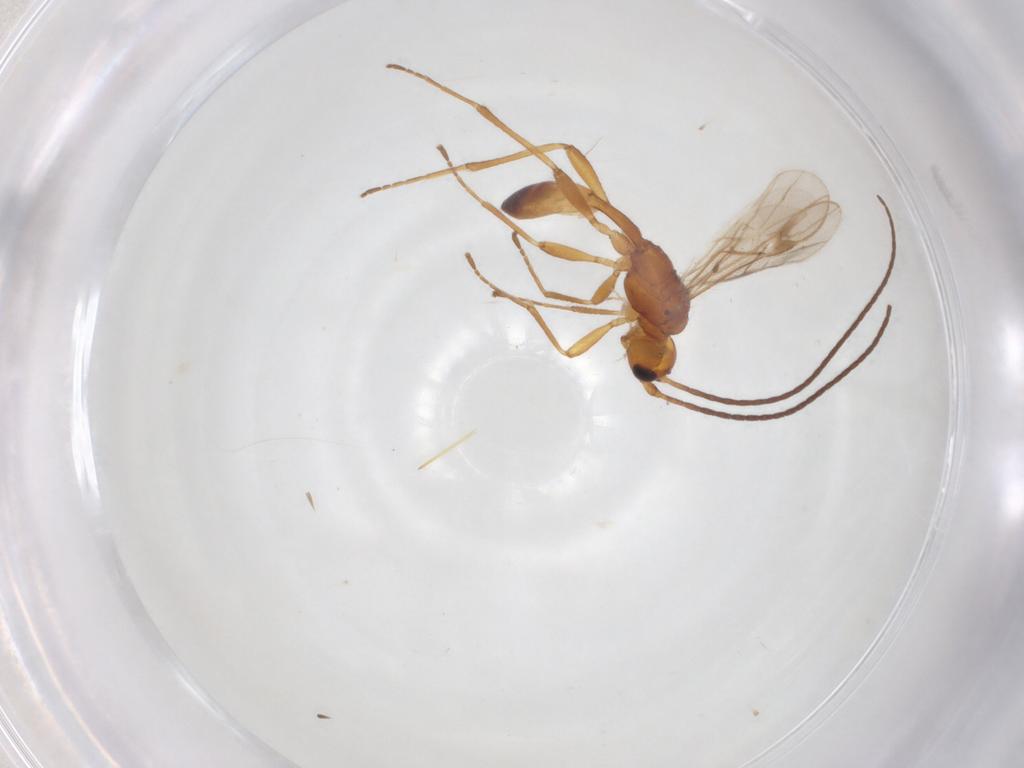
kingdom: Animalia
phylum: Arthropoda
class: Insecta
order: Hymenoptera
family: Braconidae
